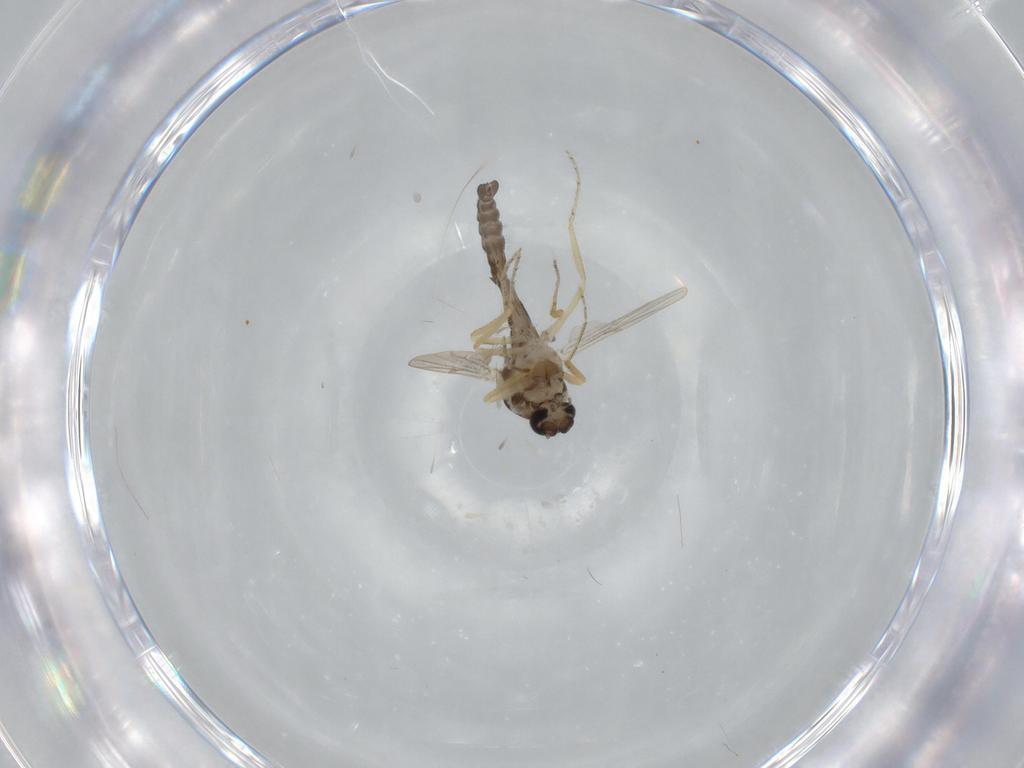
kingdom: Animalia
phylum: Arthropoda
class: Insecta
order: Diptera
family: Ceratopogonidae
